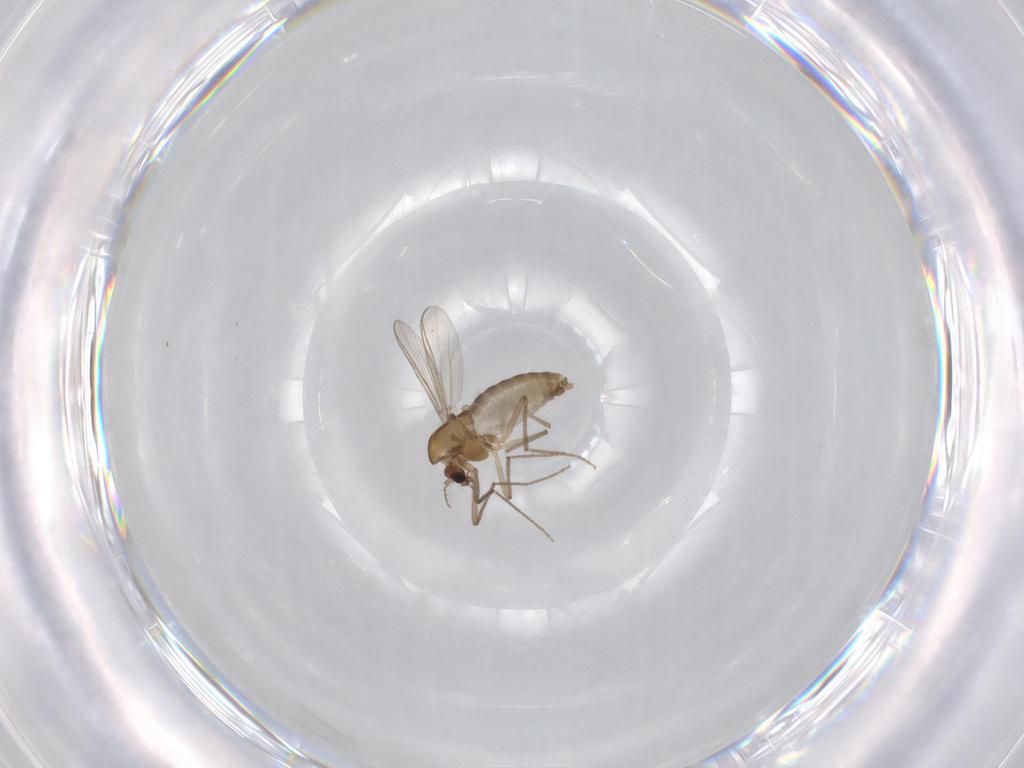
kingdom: Animalia
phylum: Arthropoda
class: Insecta
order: Diptera
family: Chironomidae
